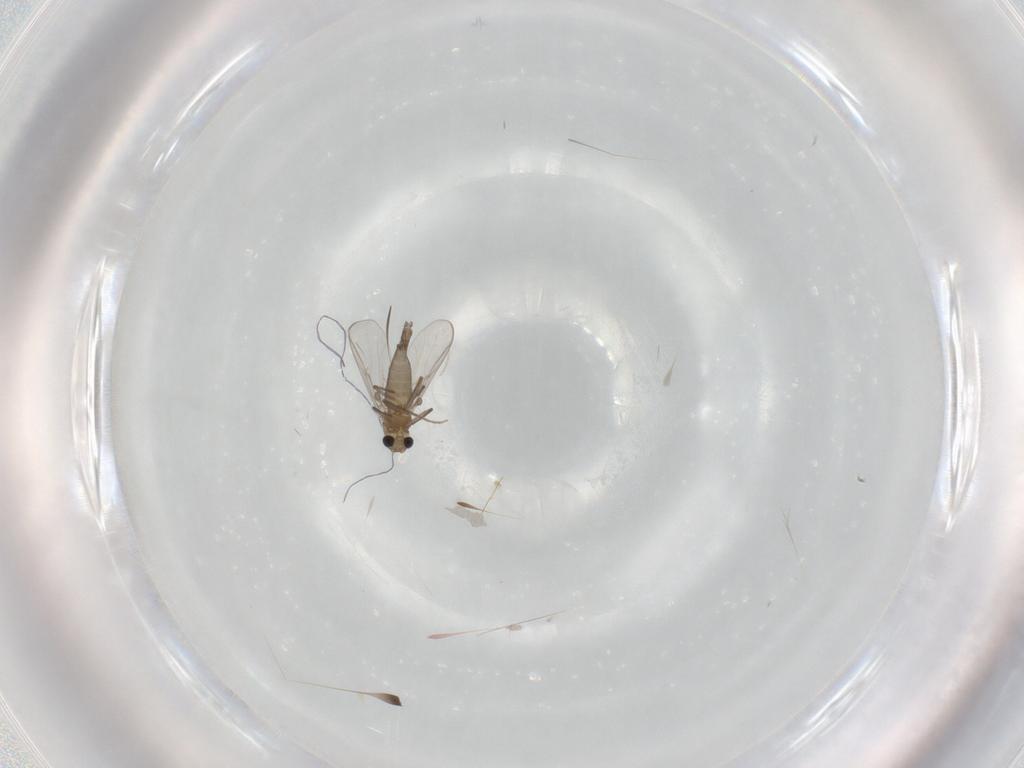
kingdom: Animalia
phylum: Arthropoda
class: Insecta
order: Diptera
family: Chironomidae
